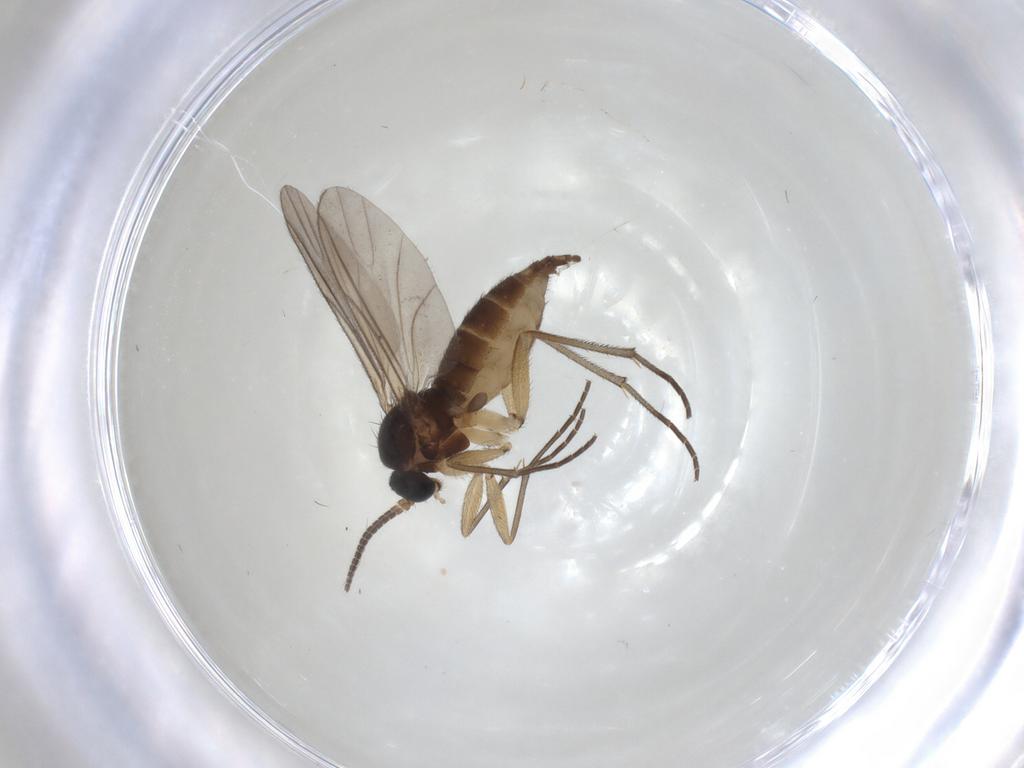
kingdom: Animalia
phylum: Arthropoda
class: Insecta
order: Diptera
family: Sciaridae
